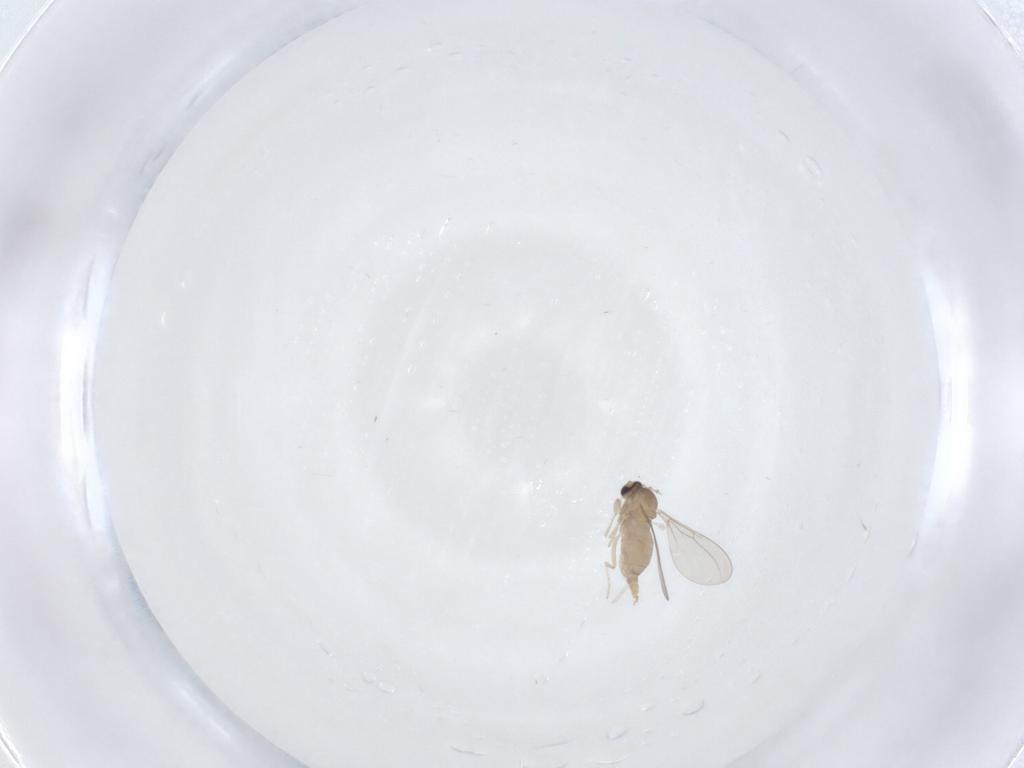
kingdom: Animalia
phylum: Arthropoda
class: Insecta
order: Diptera
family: Cecidomyiidae
